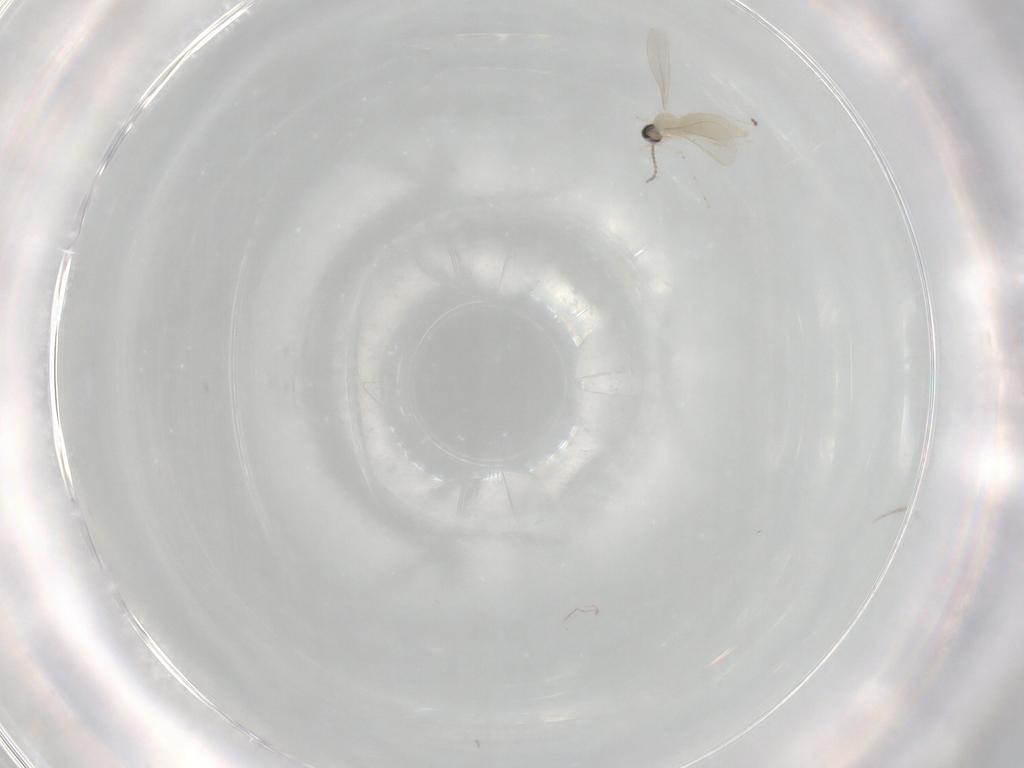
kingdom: Animalia
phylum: Arthropoda
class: Insecta
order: Diptera
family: Cecidomyiidae
